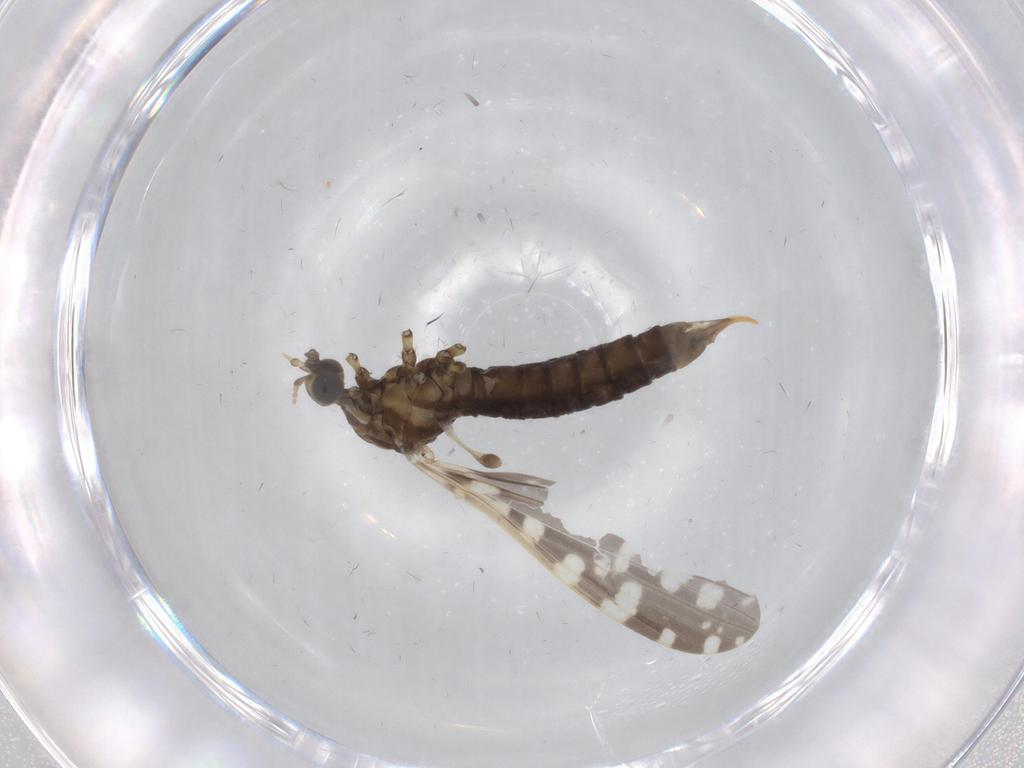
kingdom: Animalia
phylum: Arthropoda
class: Insecta
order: Diptera
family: Limoniidae
